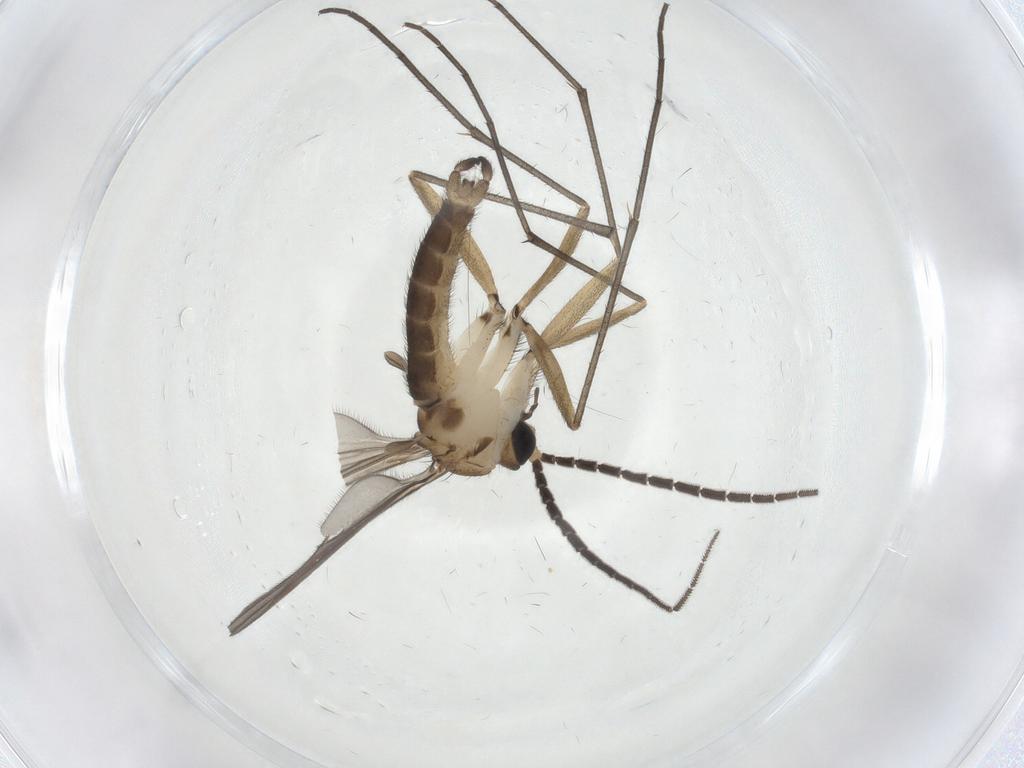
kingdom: Animalia
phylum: Arthropoda
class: Insecta
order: Diptera
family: Sciaridae
